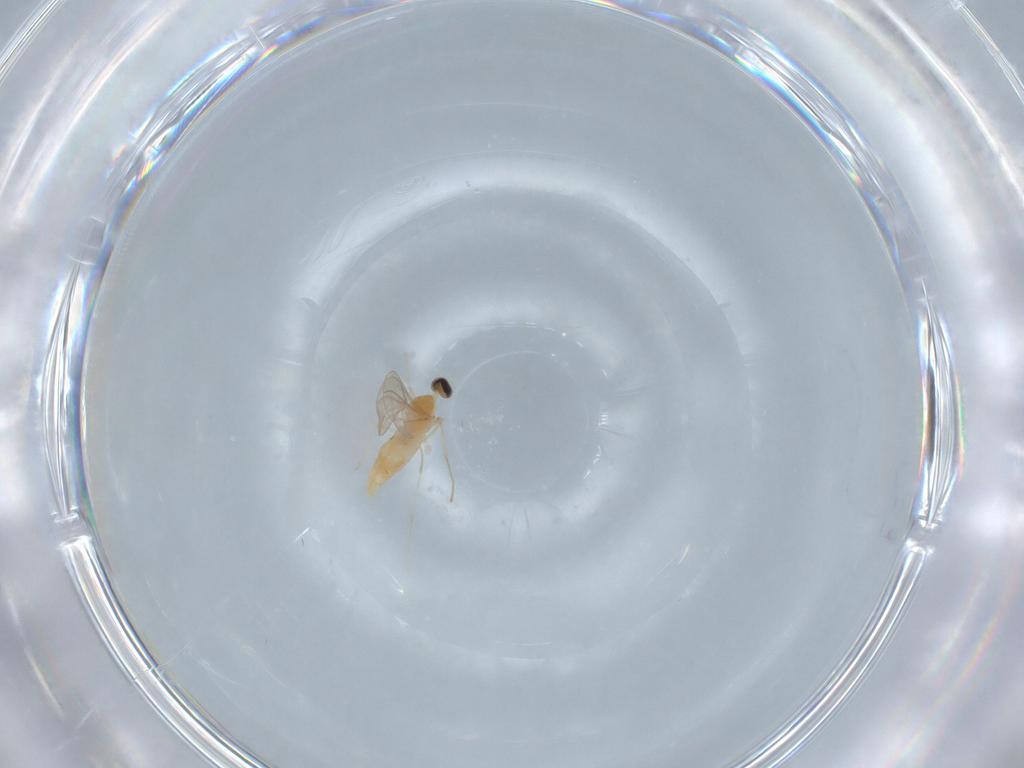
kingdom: Animalia
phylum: Arthropoda
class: Insecta
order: Diptera
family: Cecidomyiidae
